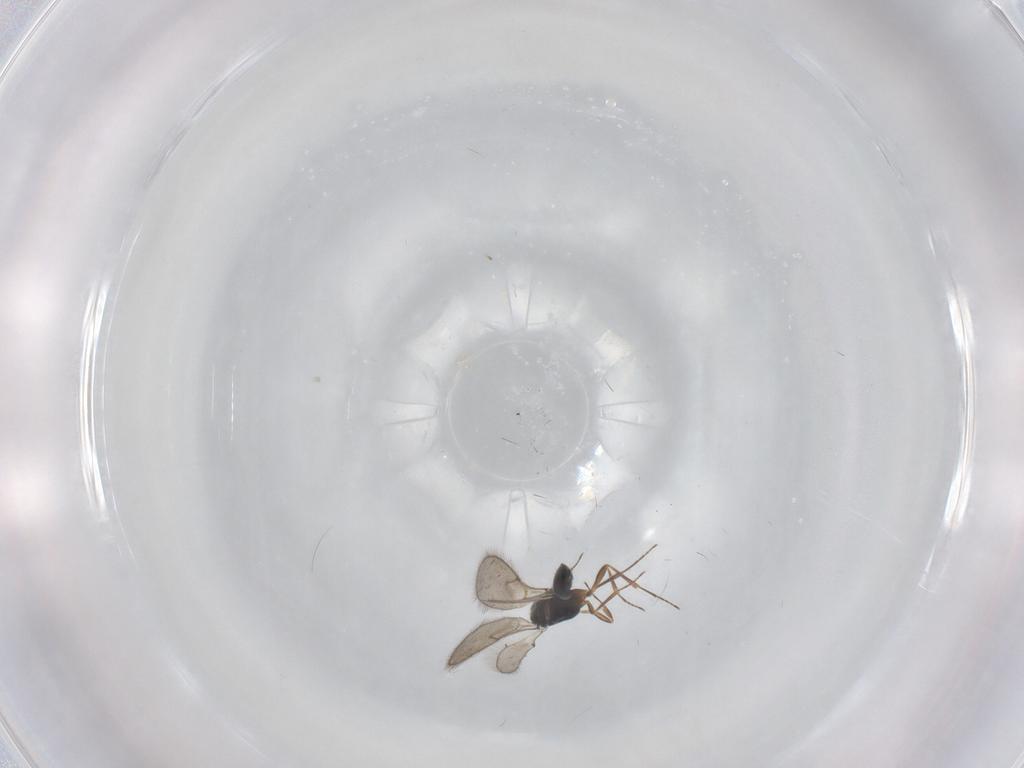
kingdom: Animalia
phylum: Arthropoda
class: Insecta
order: Hymenoptera
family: Scelionidae
